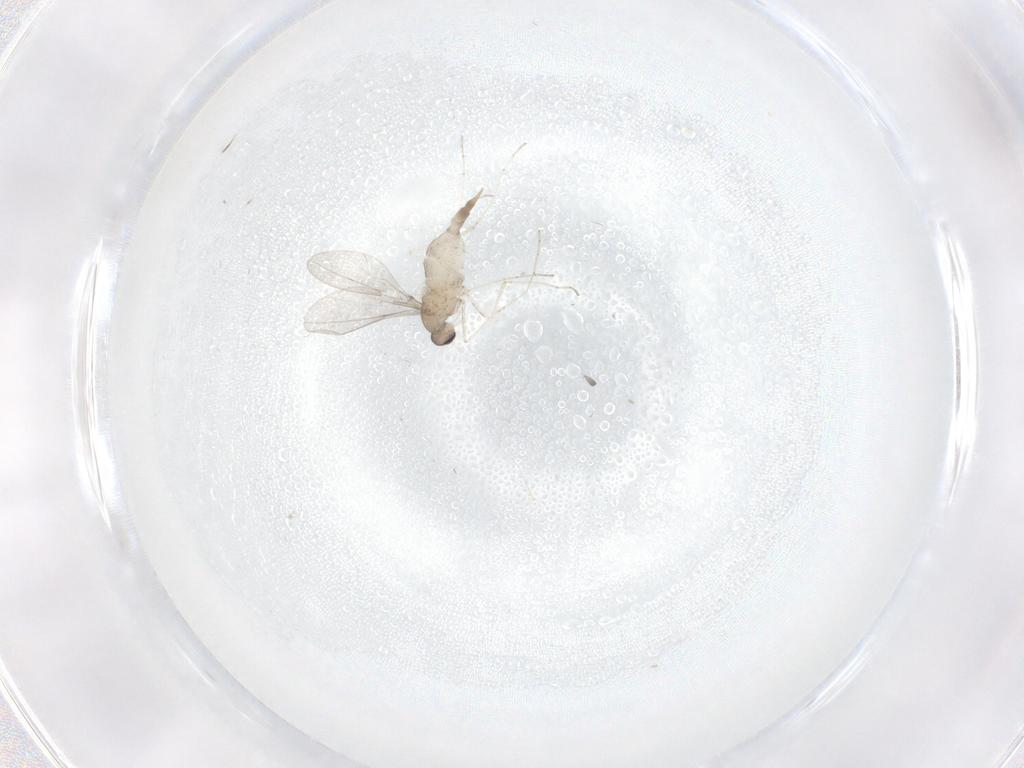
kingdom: Animalia
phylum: Arthropoda
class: Insecta
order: Diptera
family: Cecidomyiidae
